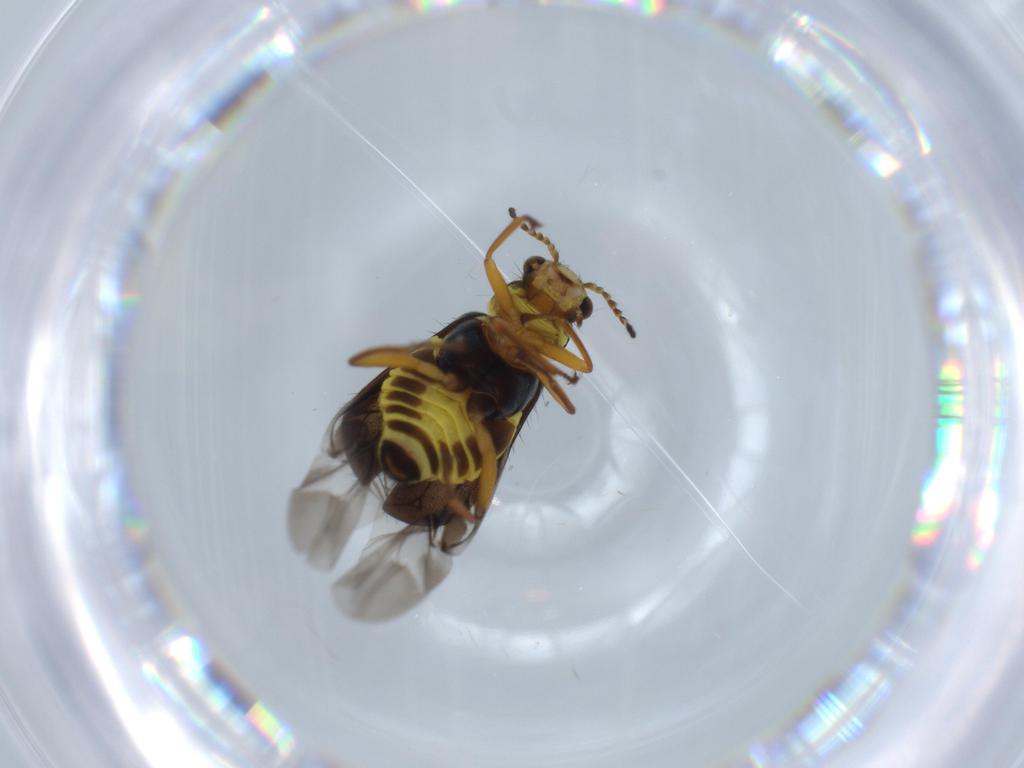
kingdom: Animalia
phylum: Arthropoda
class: Insecta
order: Coleoptera
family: Melyridae
